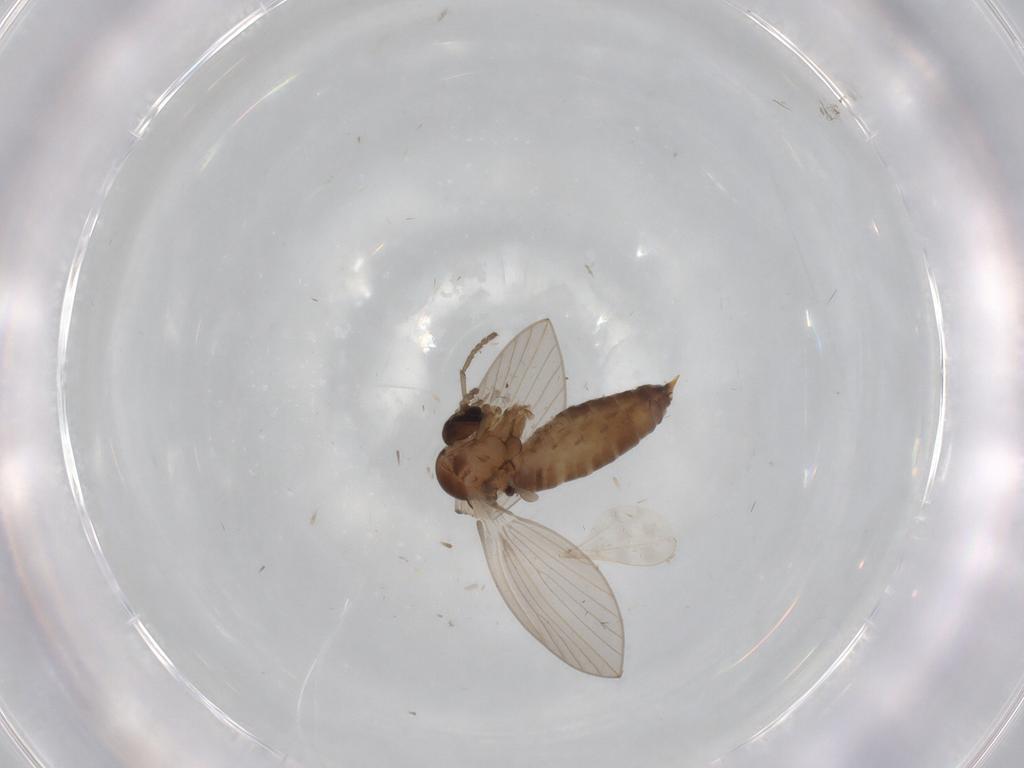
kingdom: Animalia
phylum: Arthropoda
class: Insecta
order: Diptera
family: Psychodidae
